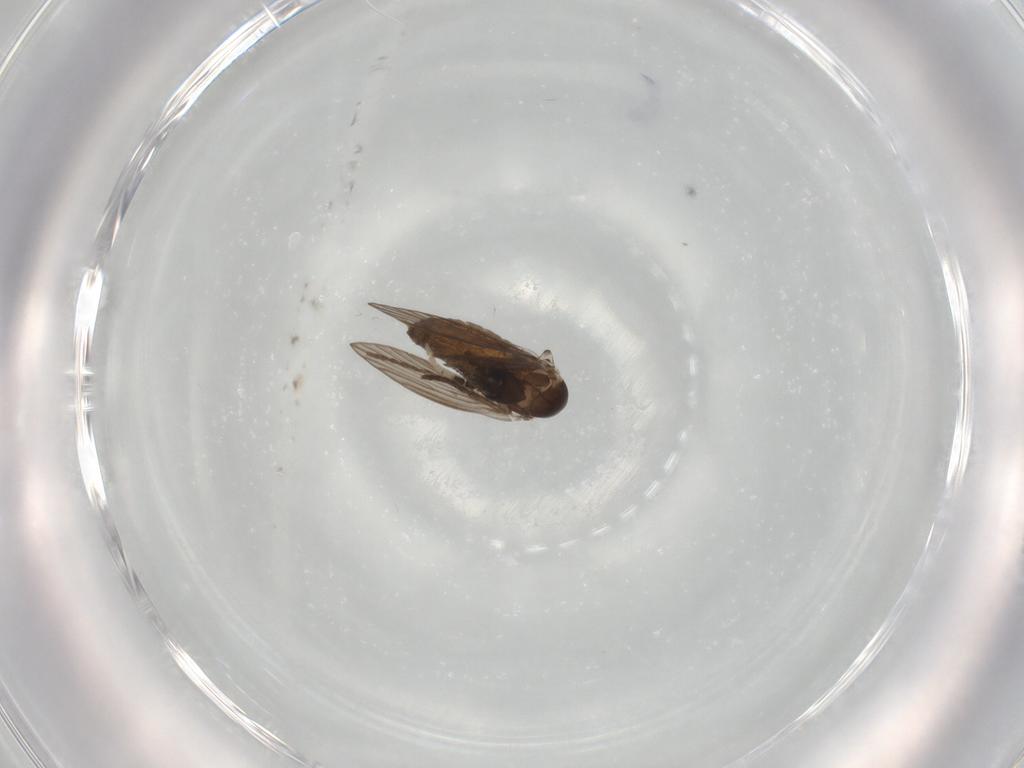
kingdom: Animalia
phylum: Arthropoda
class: Insecta
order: Diptera
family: Psychodidae
